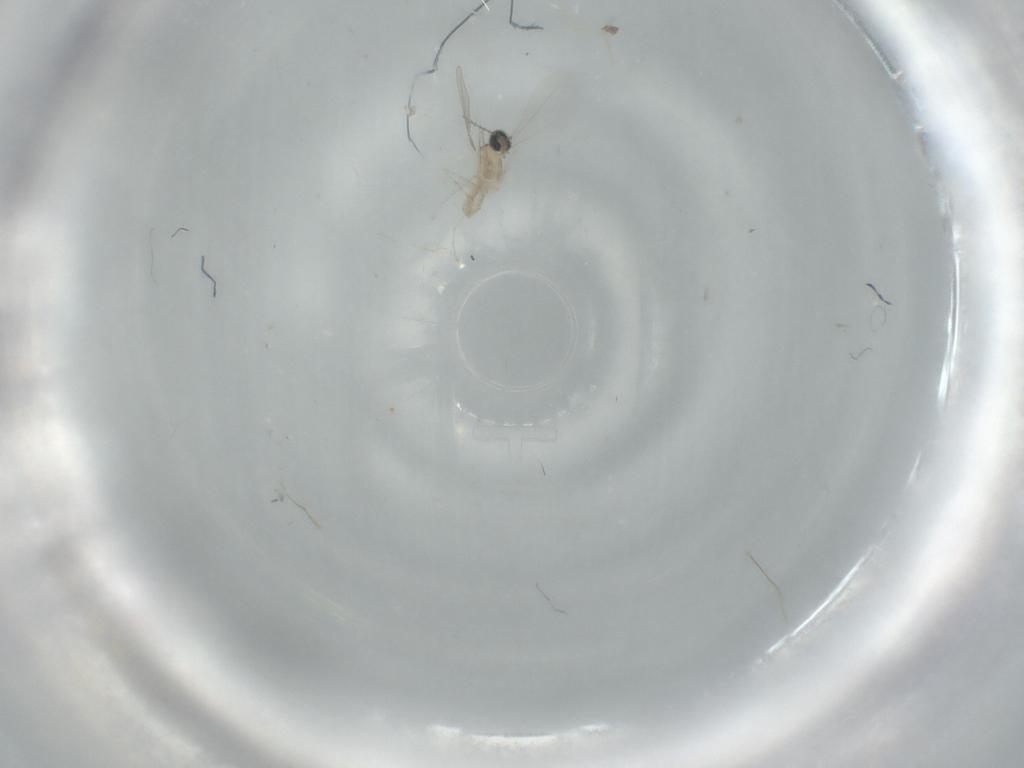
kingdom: Animalia
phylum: Arthropoda
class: Insecta
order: Diptera
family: Cecidomyiidae
